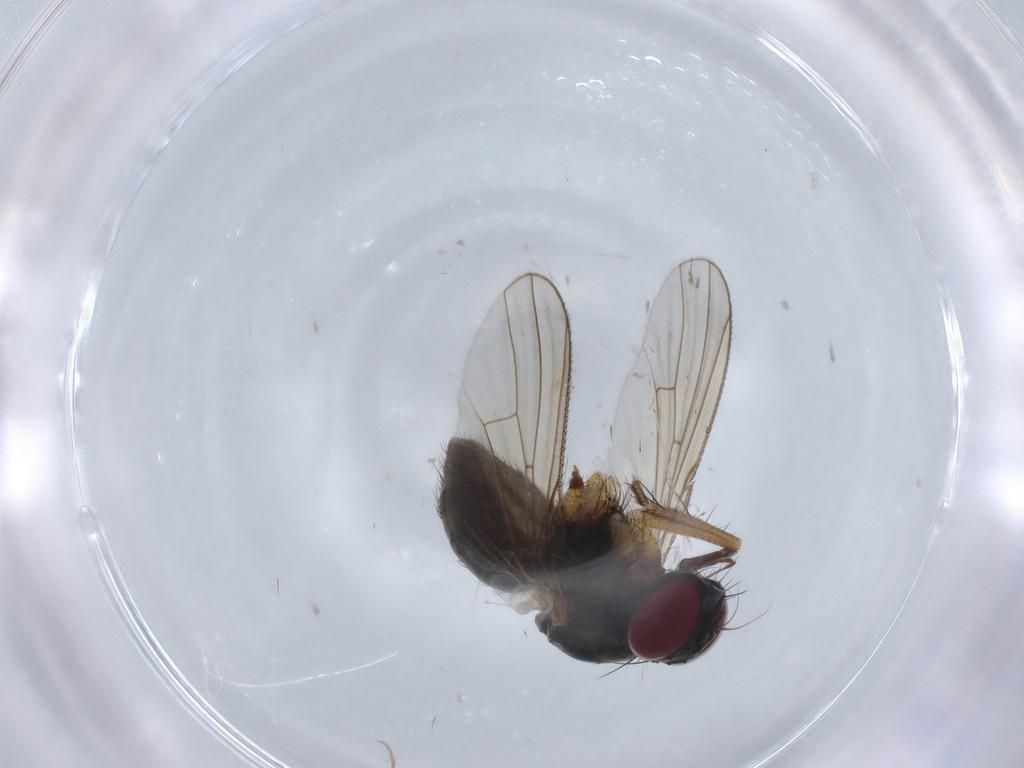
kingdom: Animalia
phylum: Arthropoda
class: Insecta
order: Diptera
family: Muscidae
